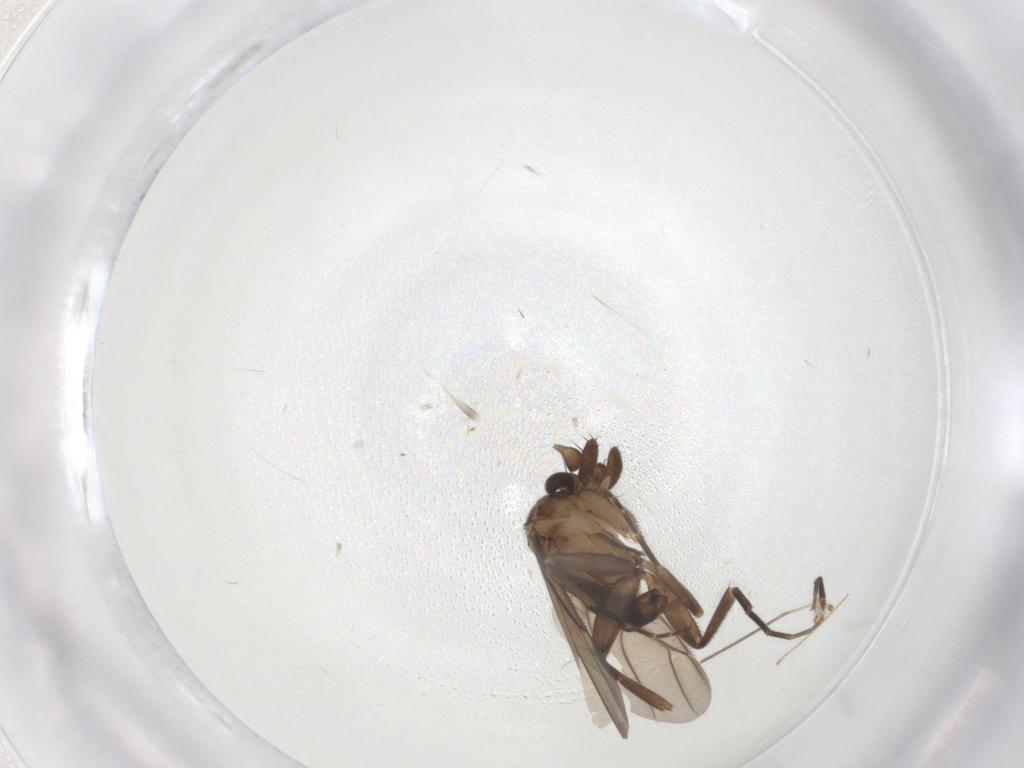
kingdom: Animalia
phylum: Arthropoda
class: Insecta
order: Diptera
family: Phoridae
